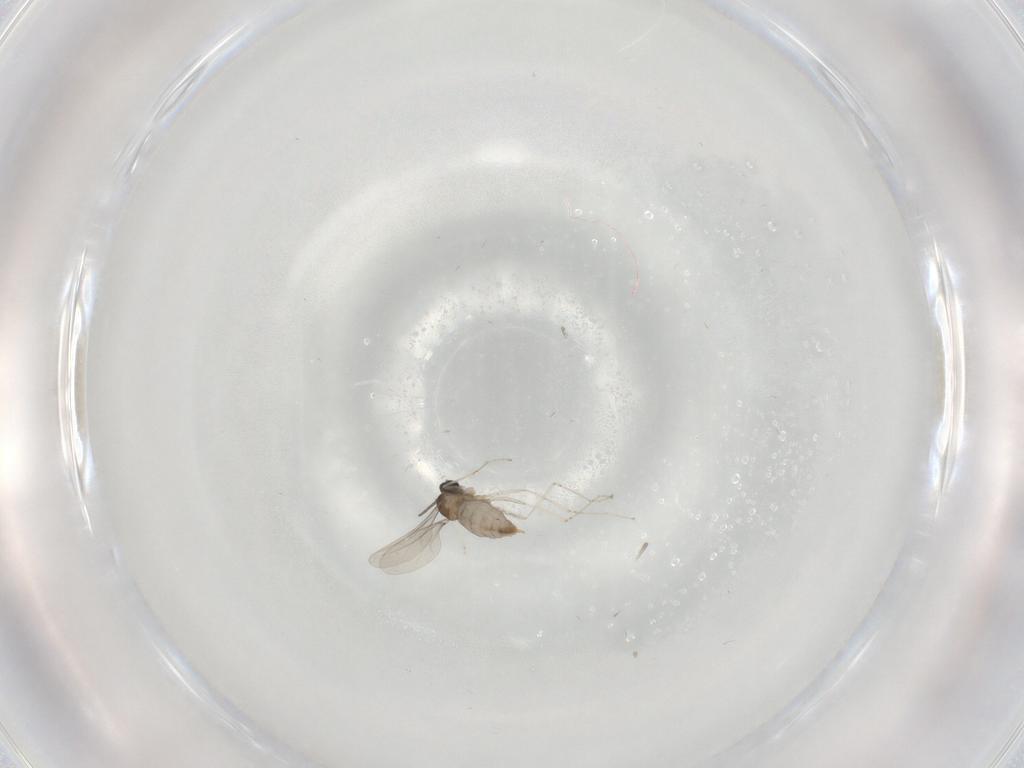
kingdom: Animalia
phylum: Arthropoda
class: Insecta
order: Diptera
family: Cecidomyiidae
